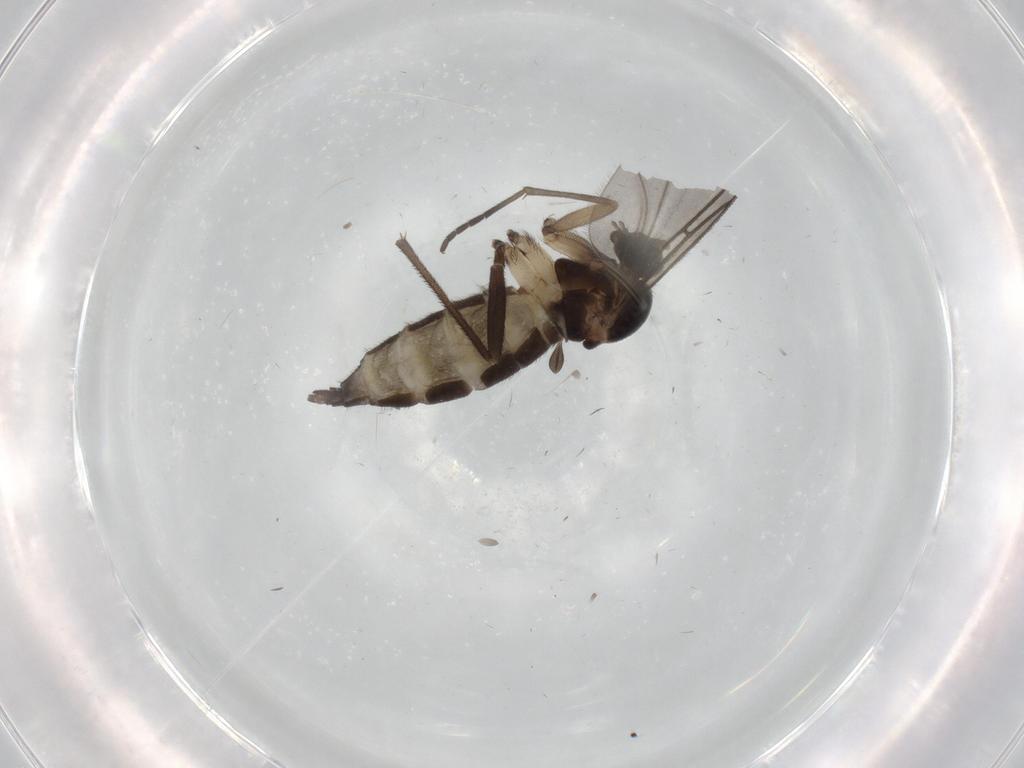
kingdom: Animalia
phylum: Arthropoda
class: Insecta
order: Diptera
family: Sciaridae
